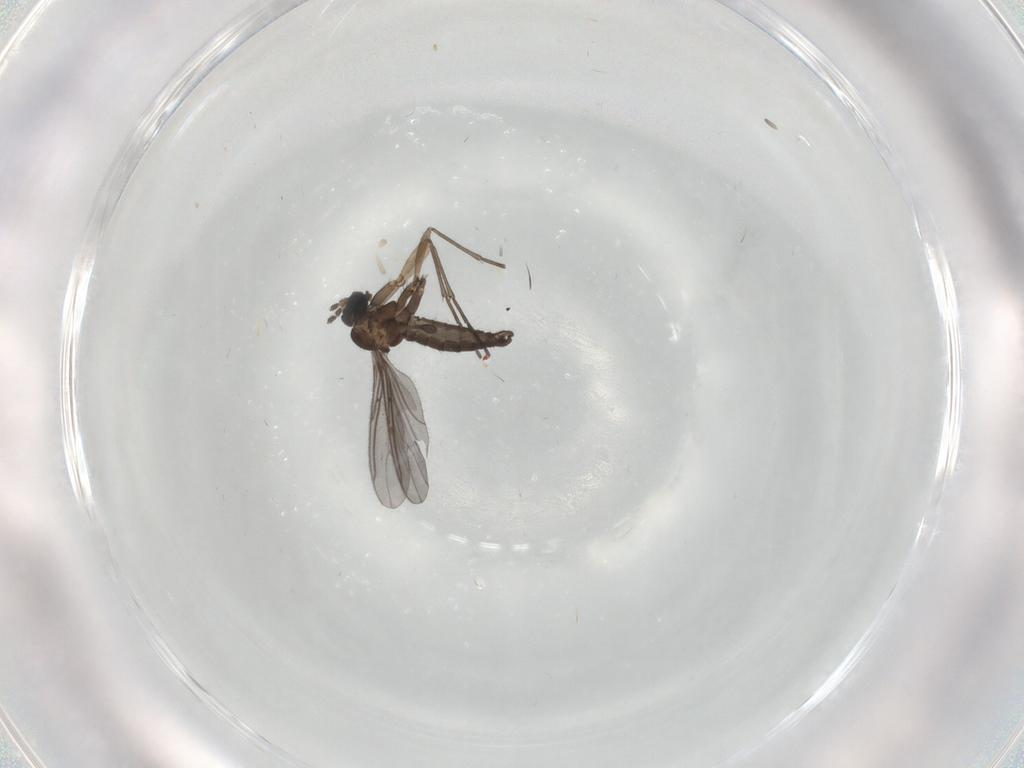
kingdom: Animalia
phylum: Arthropoda
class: Insecta
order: Diptera
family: Sciaridae
